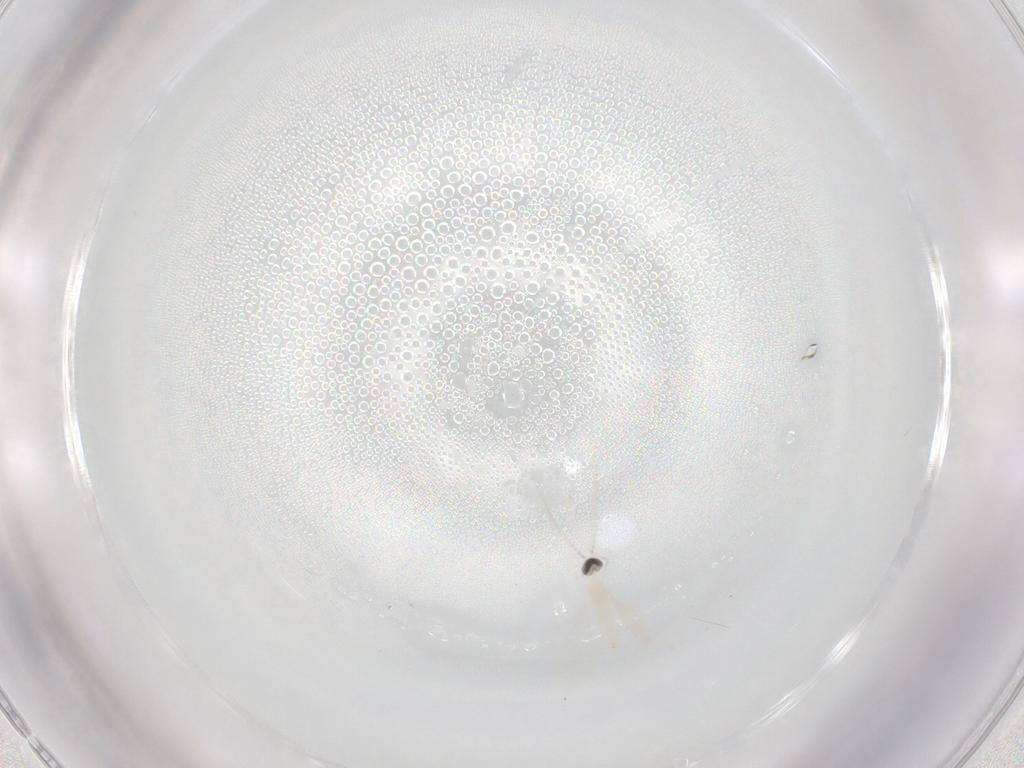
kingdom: Animalia
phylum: Arthropoda
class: Insecta
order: Diptera
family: Cecidomyiidae
